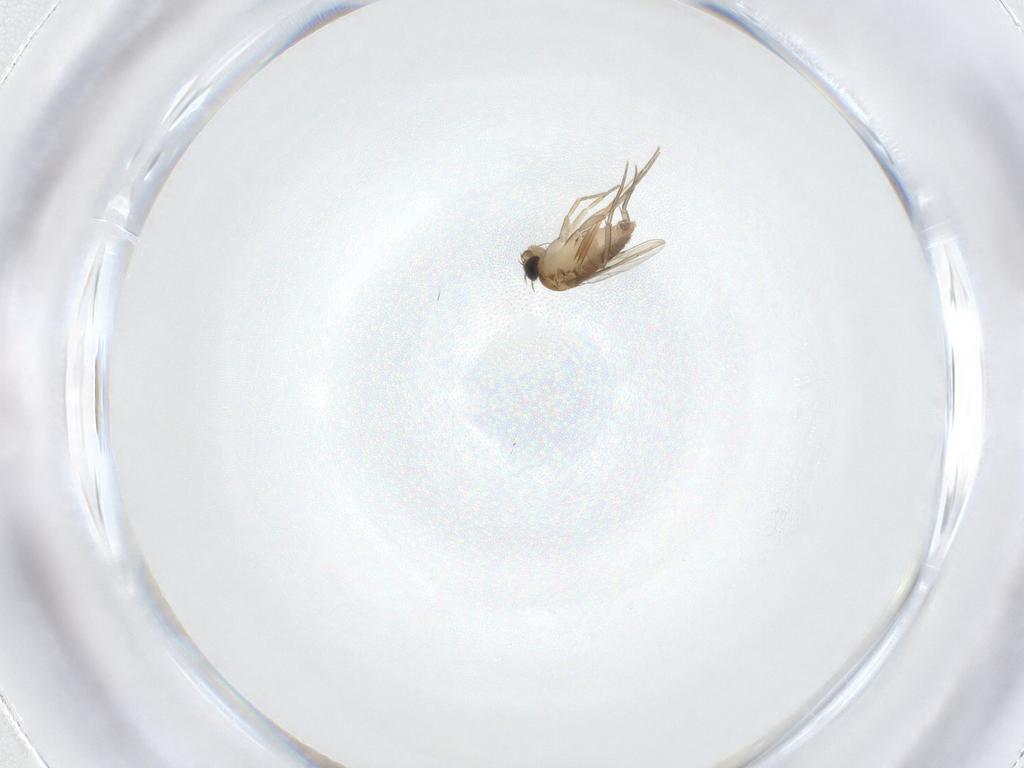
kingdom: Animalia
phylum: Arthropoda
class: Insecta
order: Diptera
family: Phoridae
